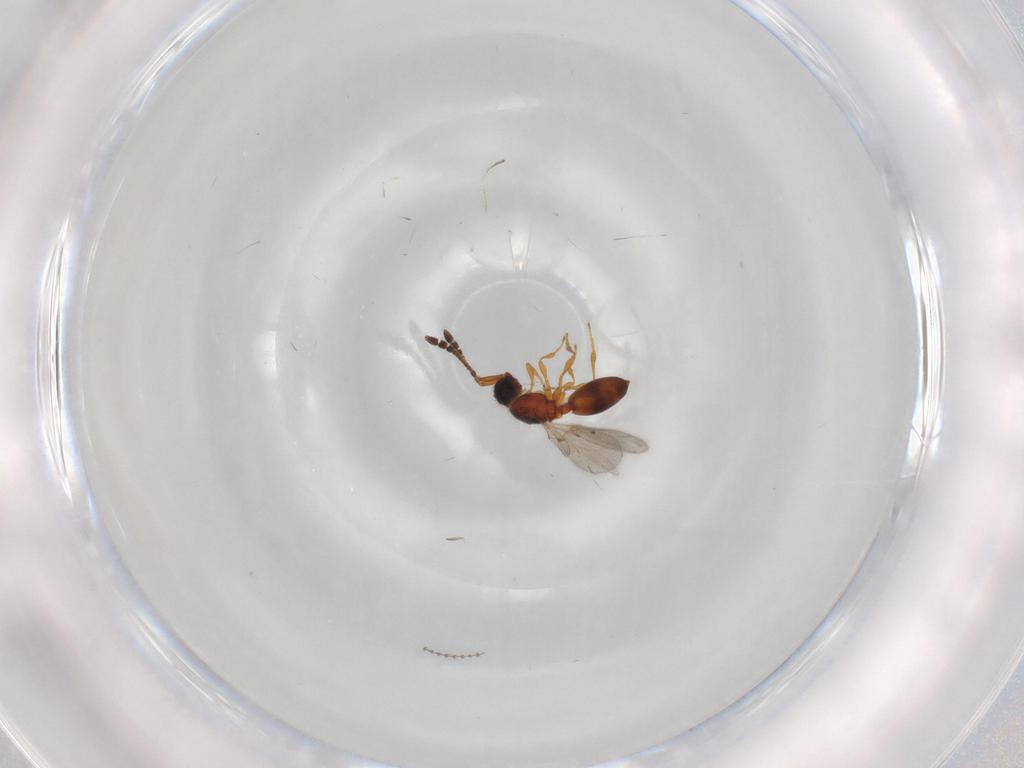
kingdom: Animalia
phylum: Arthropoda
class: Insecta
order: Hymenoptera
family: Diapriidae
